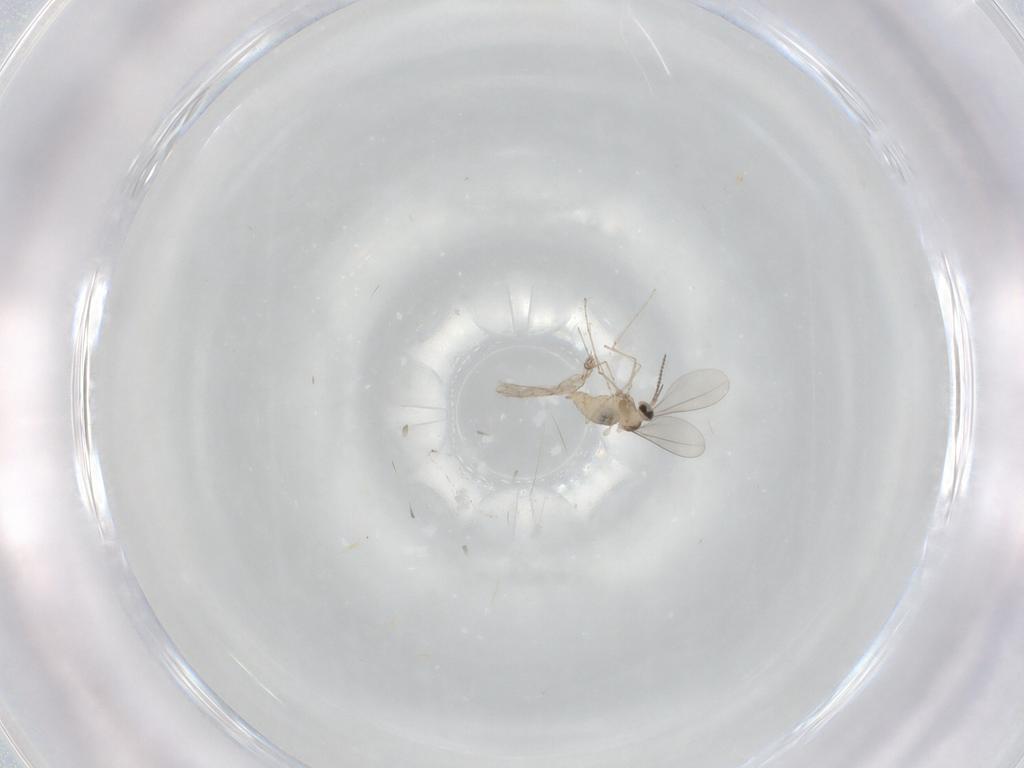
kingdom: Animalia
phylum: Arthropoda
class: Insecta
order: Diptera
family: Cecidomyiidae
